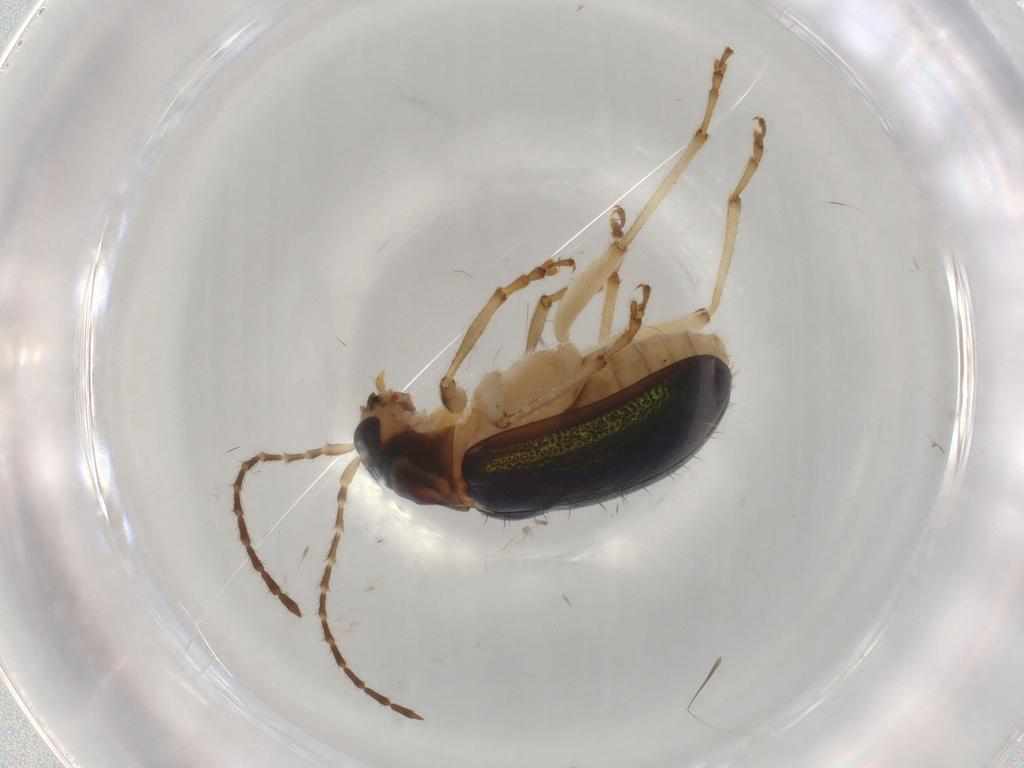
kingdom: Animalia
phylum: Arthropoda
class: Insecta
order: Coleoptera
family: Chrysomelidae
